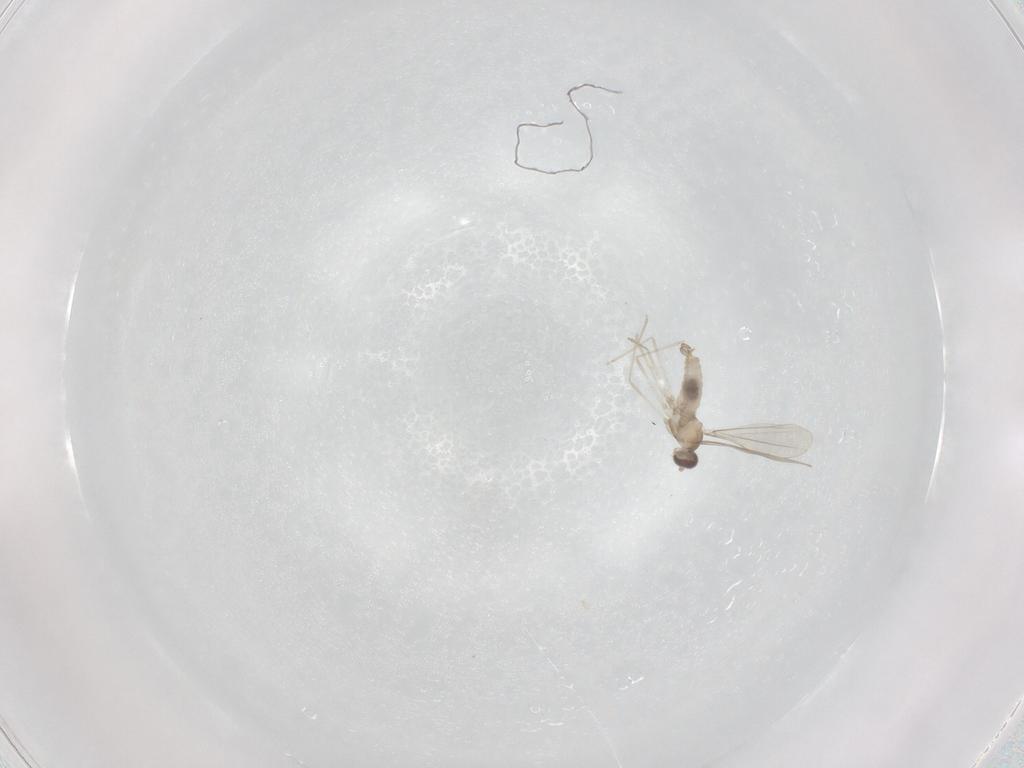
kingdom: Animalia
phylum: Arthropoda
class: Insecta
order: Diptera
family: Cecidomyiidae
